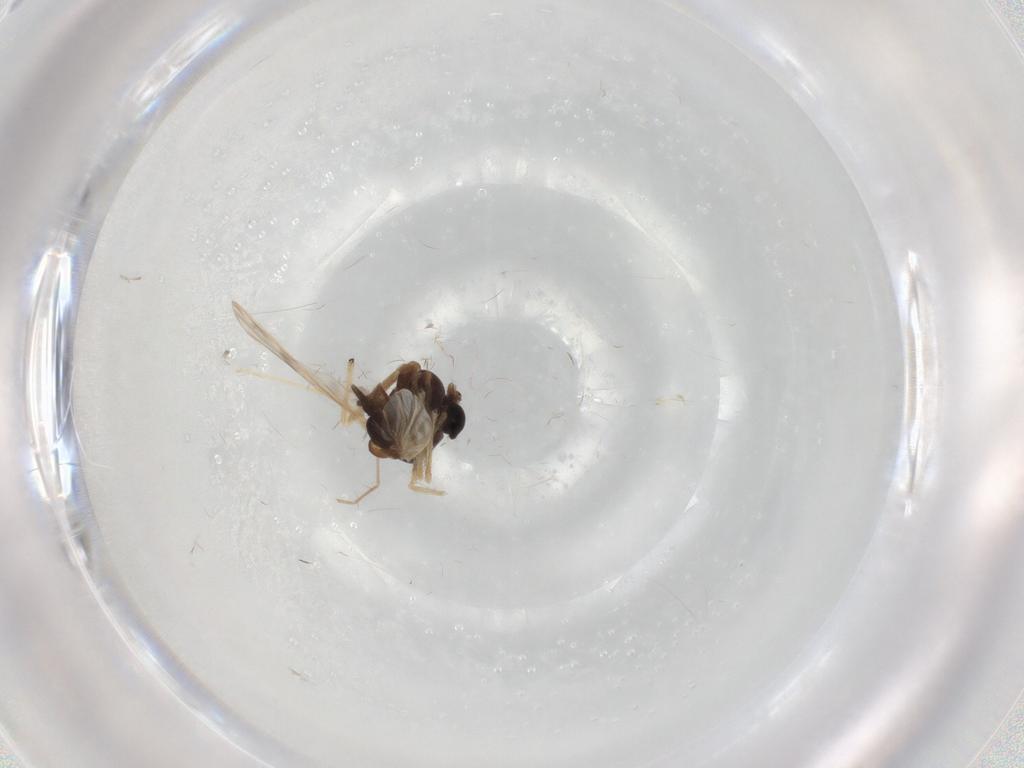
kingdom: Animalia
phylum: Arthropoda
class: Insecta
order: Diptera
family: Chironomidae
